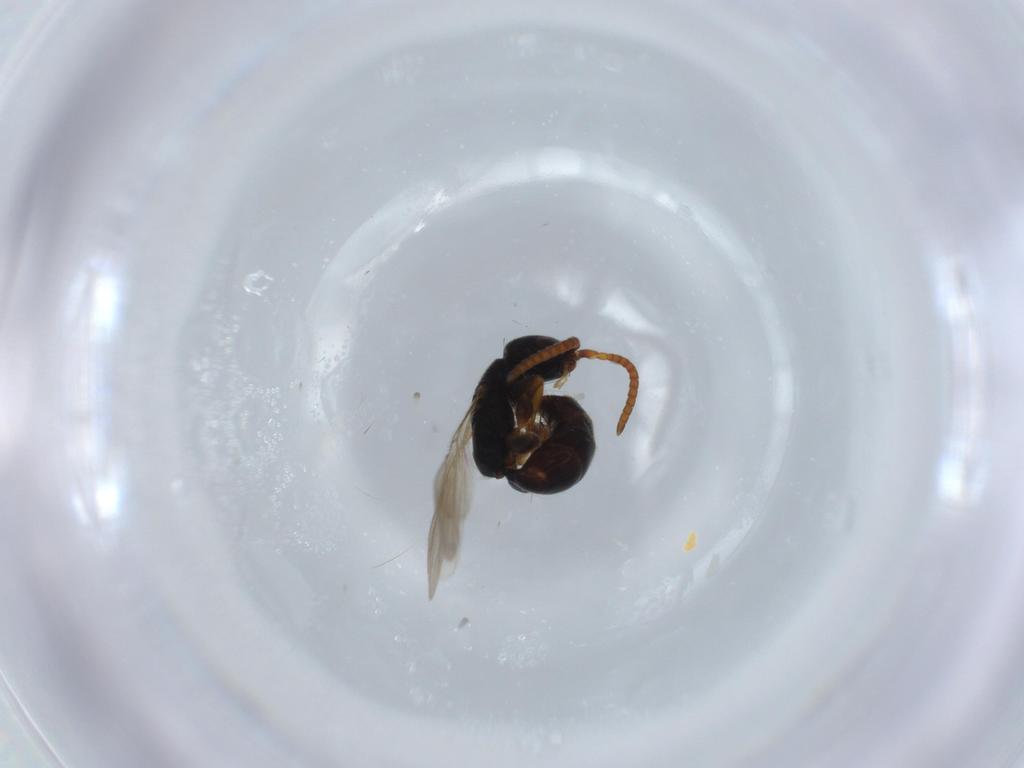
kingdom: Animalia
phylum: Arthropoda
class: Insecta
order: Hymenoptera
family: Bethylidae
